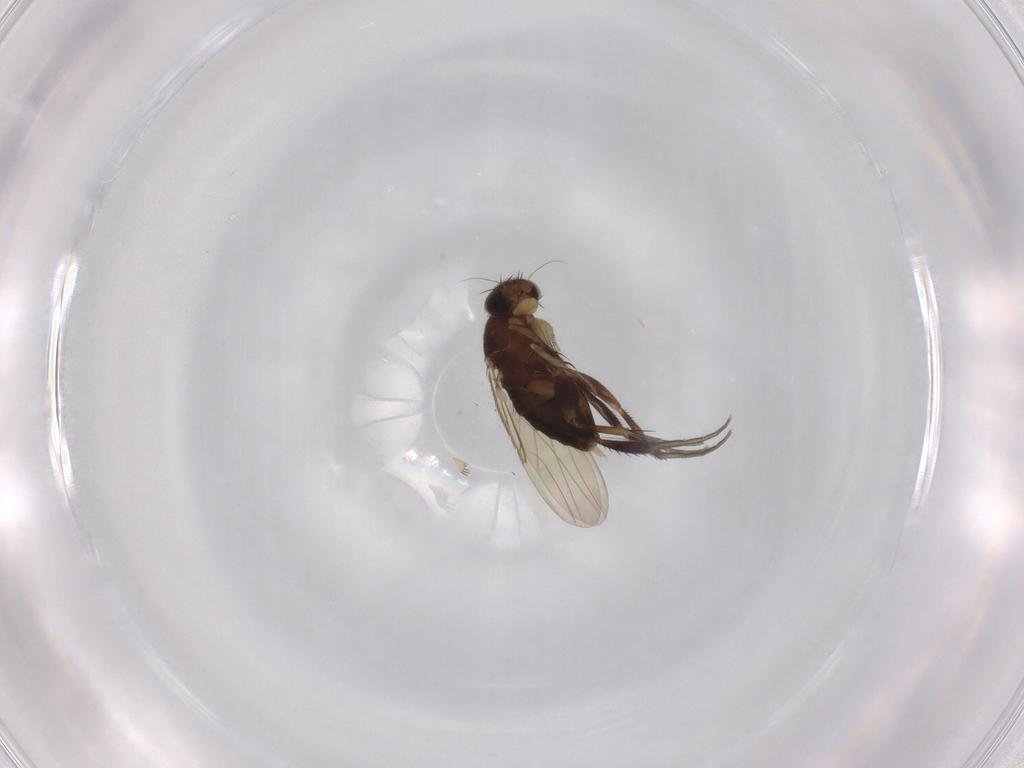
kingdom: Animalia
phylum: Arthropoda
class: Insecta
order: Diptera
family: Phoridae
